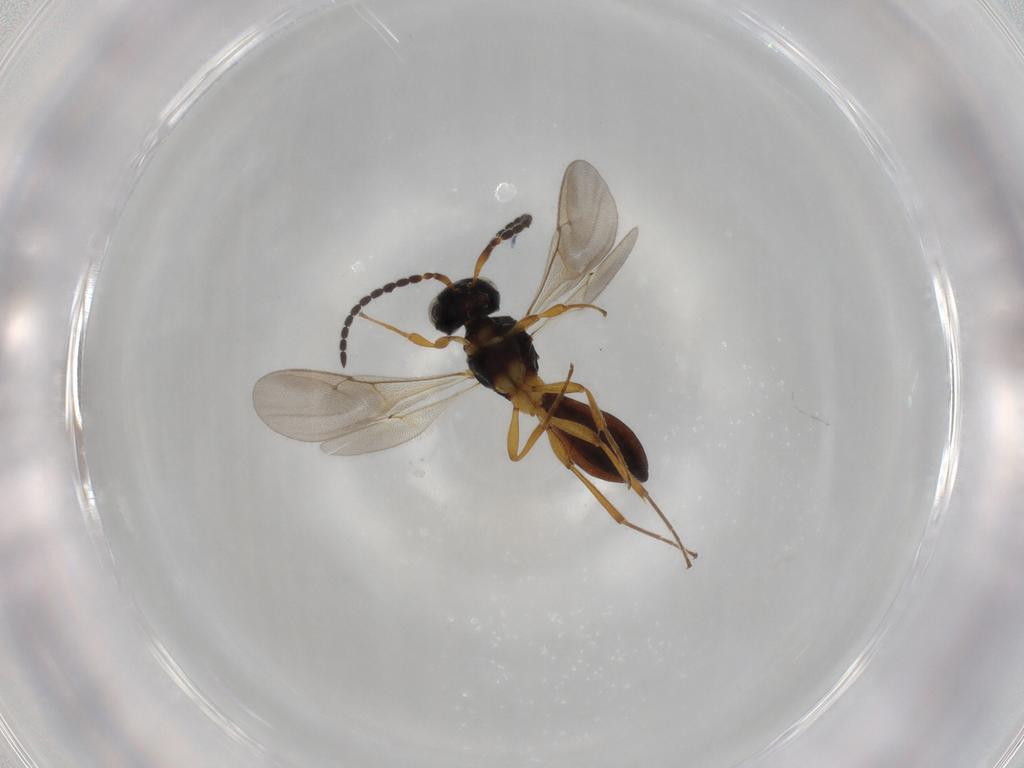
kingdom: Animalia
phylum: Arthropoda
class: Insecta
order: Hymenoptera
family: Scelionidae
